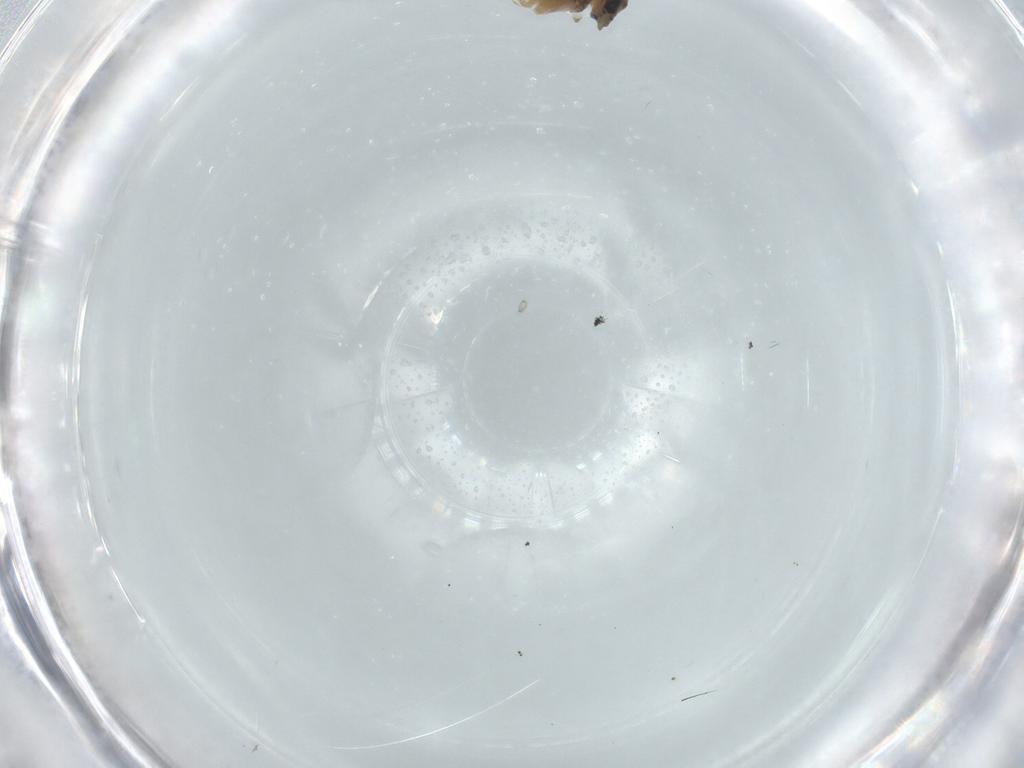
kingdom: Animalia
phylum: Arthropoda
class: Insecta
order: Diptera
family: Chironomidae
